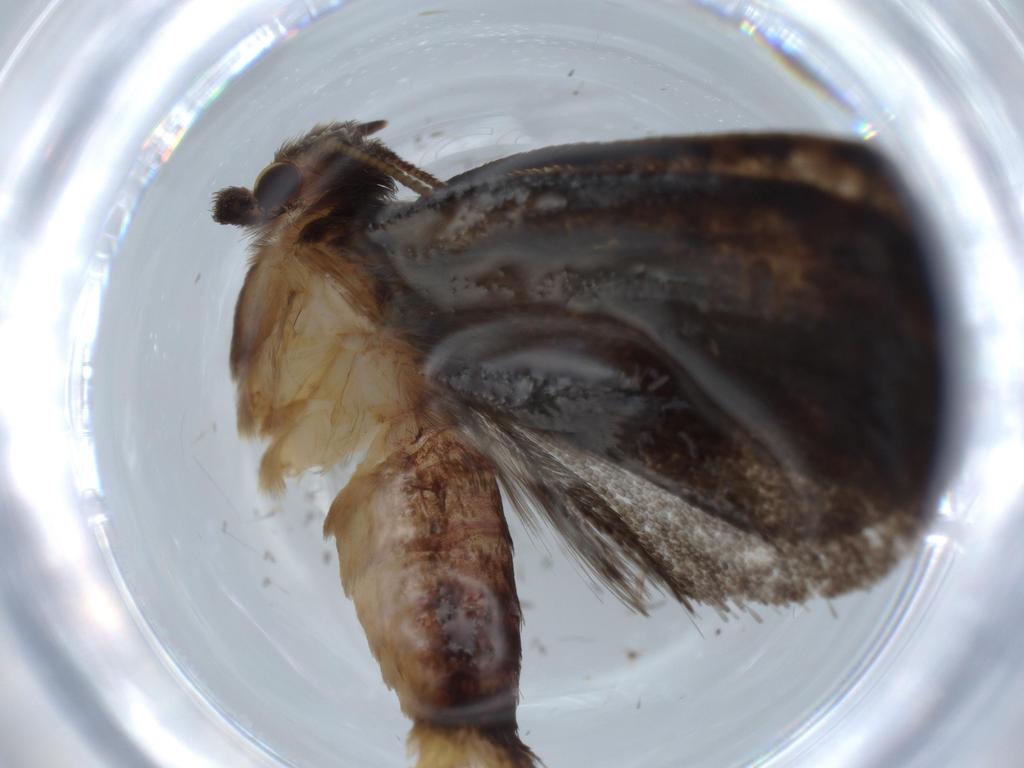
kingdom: Animalia
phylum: Arthropoda
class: Insecta
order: Lepidoptera
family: Tineidae
